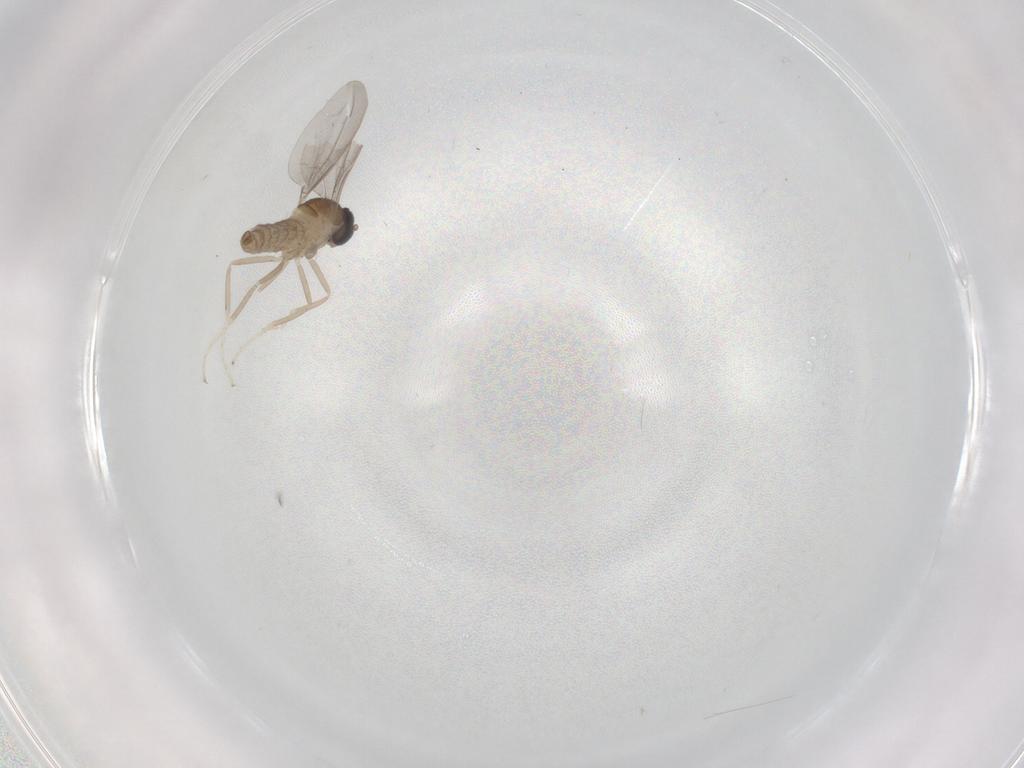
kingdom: Animalia
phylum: Arthropoda
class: Insecta
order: Diptera
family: Cecidomyiidae
